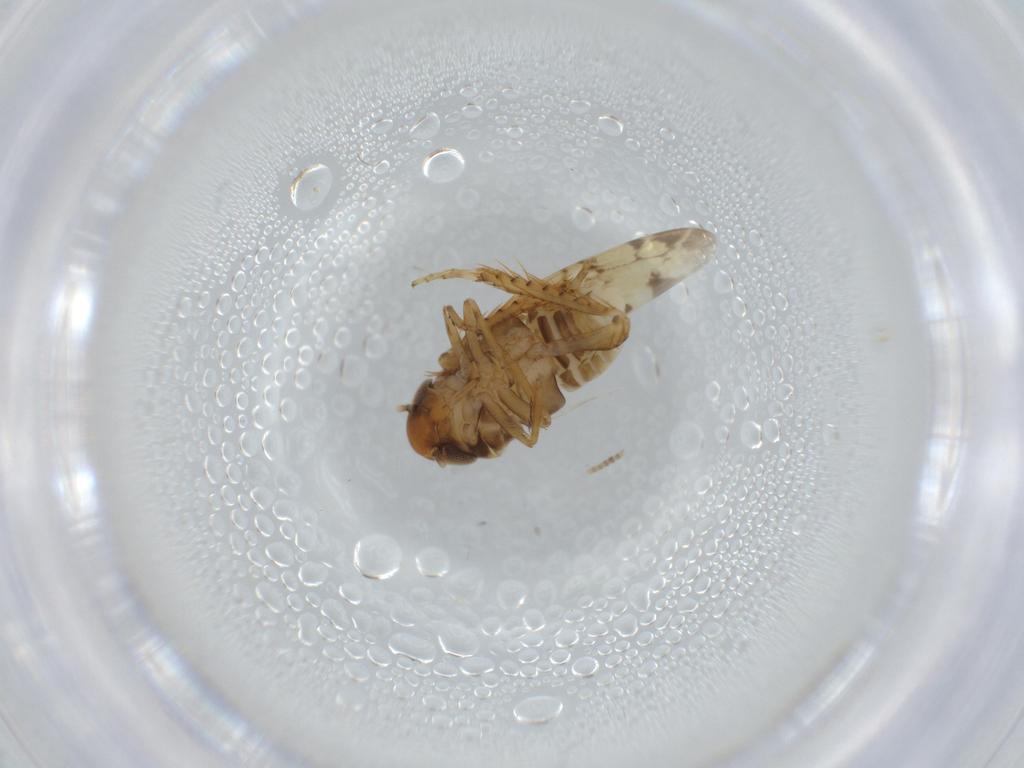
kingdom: Animalia
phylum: Arthropoda
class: Insecta
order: Hemiptera
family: Cicadellidae
